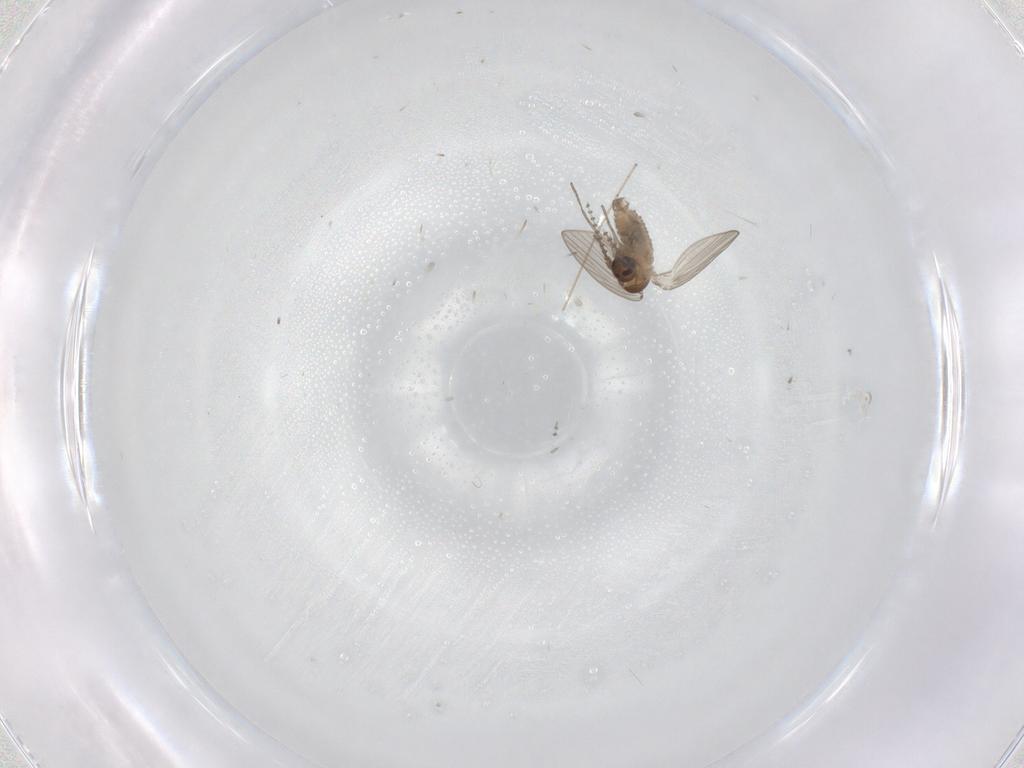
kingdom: Animalia
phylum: Arthropoda
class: Insecta
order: Diptera
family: Psychodidae
